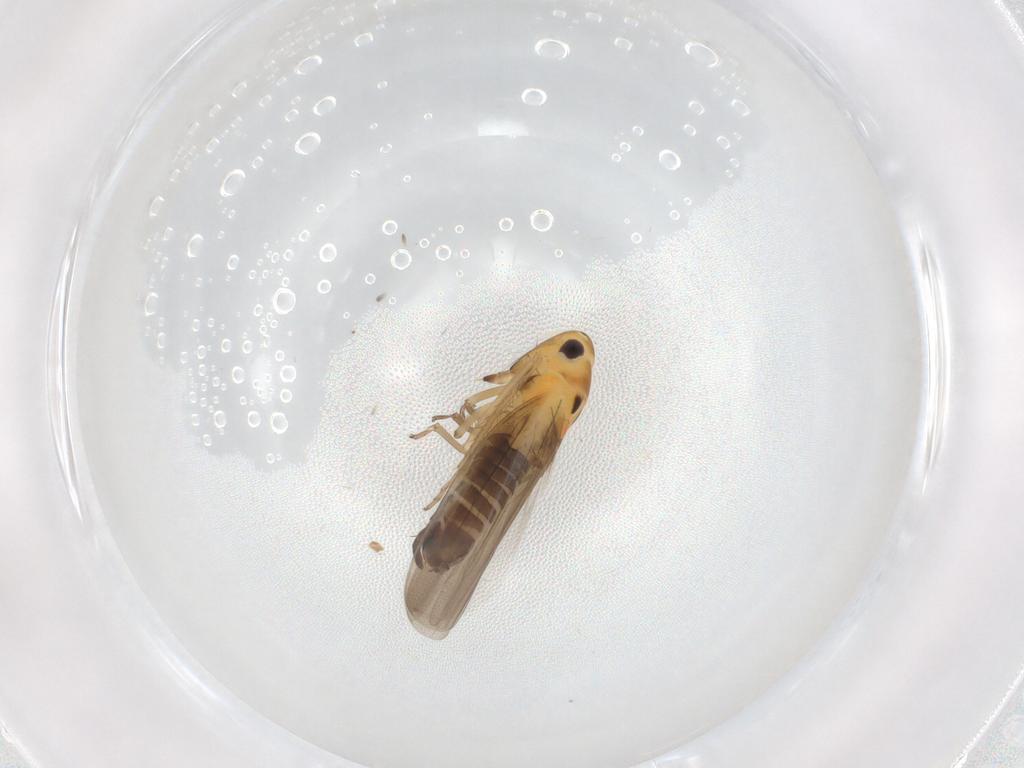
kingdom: Animalia
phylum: Arthropoda
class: Insecta
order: Hemiptera
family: Cicadellidae
